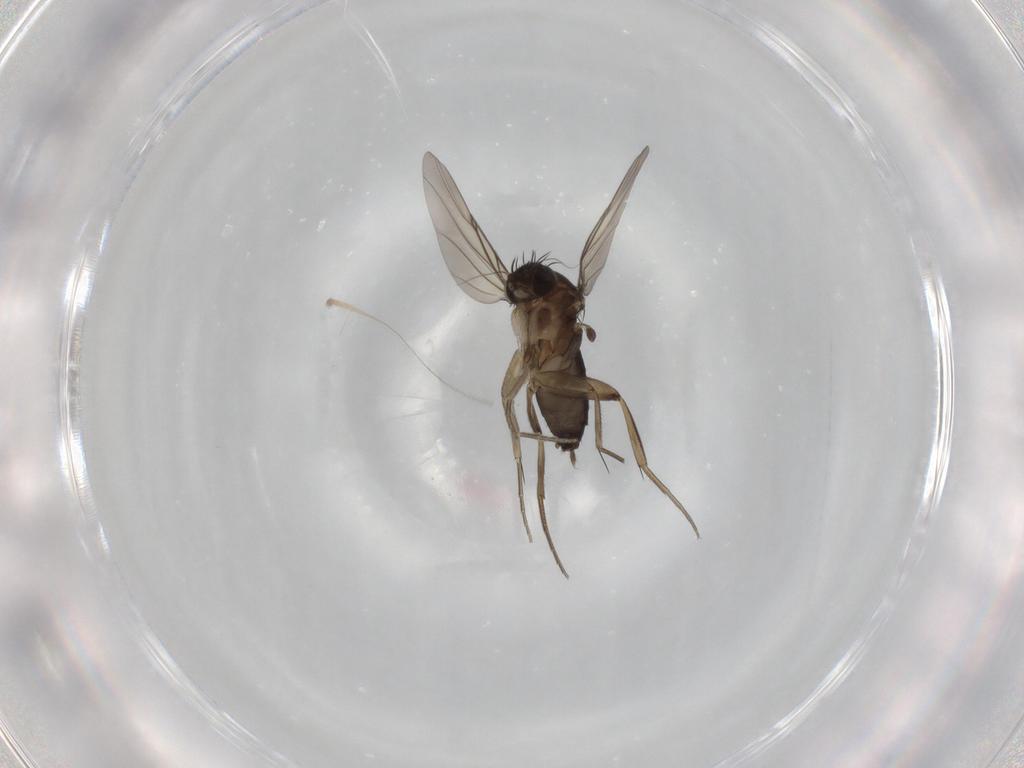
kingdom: Animalia
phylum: Arthropoda
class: Insecta
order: Diptera
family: Phoridae
